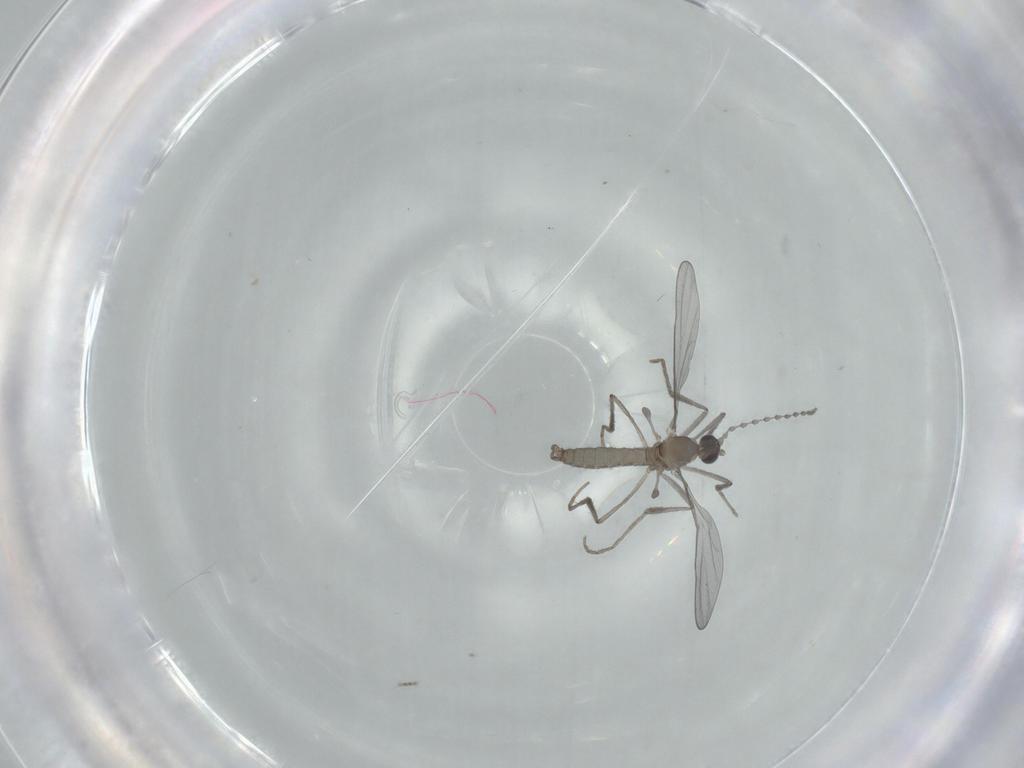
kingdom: Animalia
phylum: Arthropoda
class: Insecta
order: Diptera
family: Cecidomyiidae
